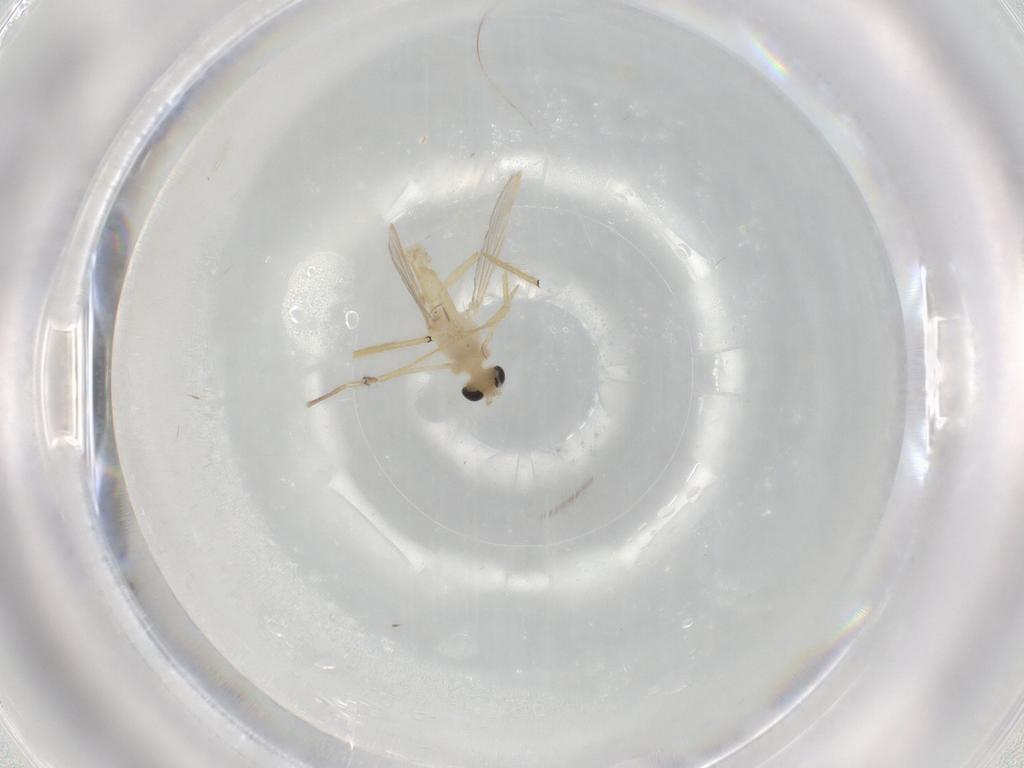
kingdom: Animalia
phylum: Arthropoda
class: Insecta
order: Diptera
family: Chironomidae
